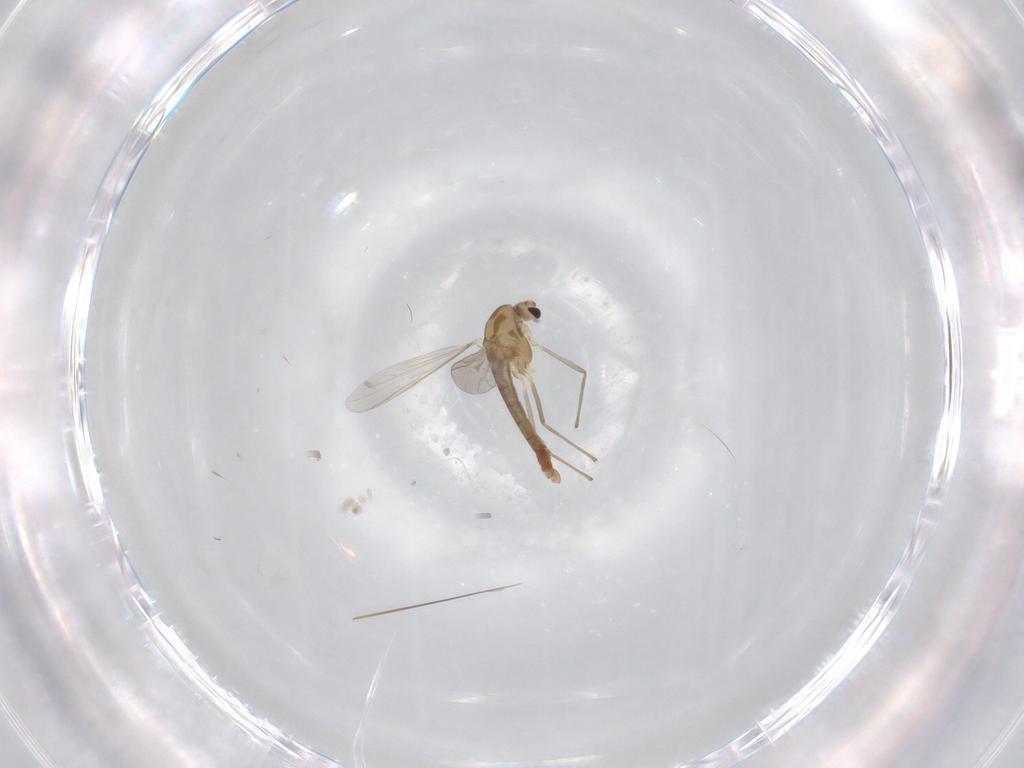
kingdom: Animalia
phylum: Arthropoda
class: Insecta
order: Diptera
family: Chironomidae
